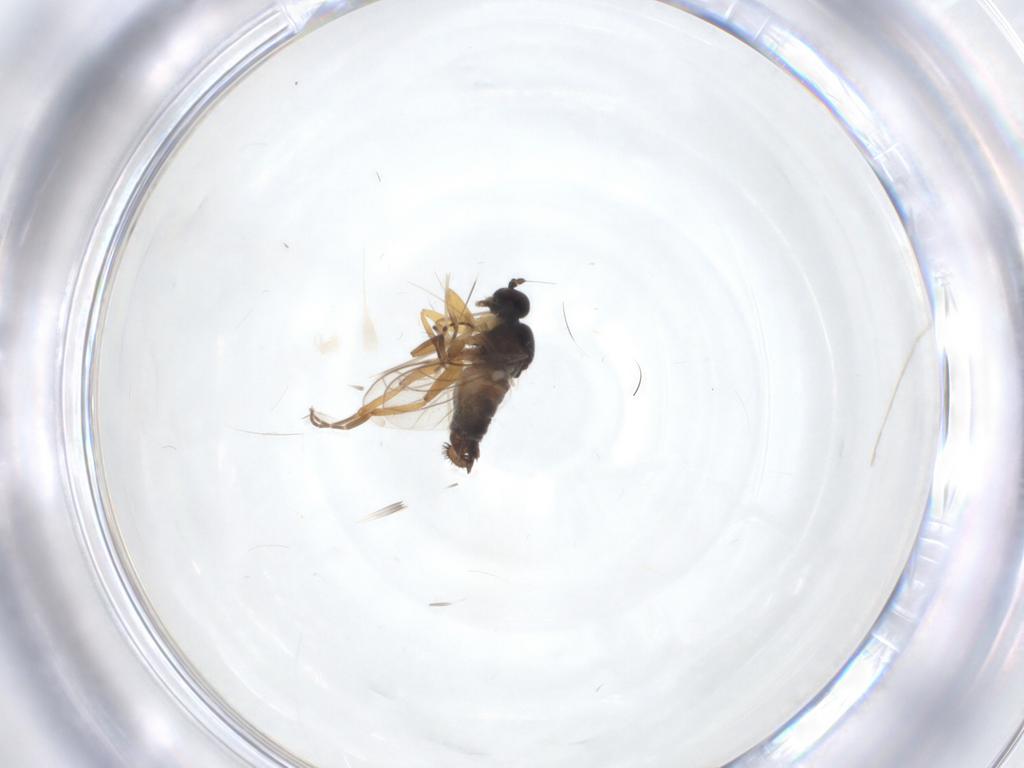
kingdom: Animalia
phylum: Arthropoda
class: Insecta
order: Diptera
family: Hybotidae
